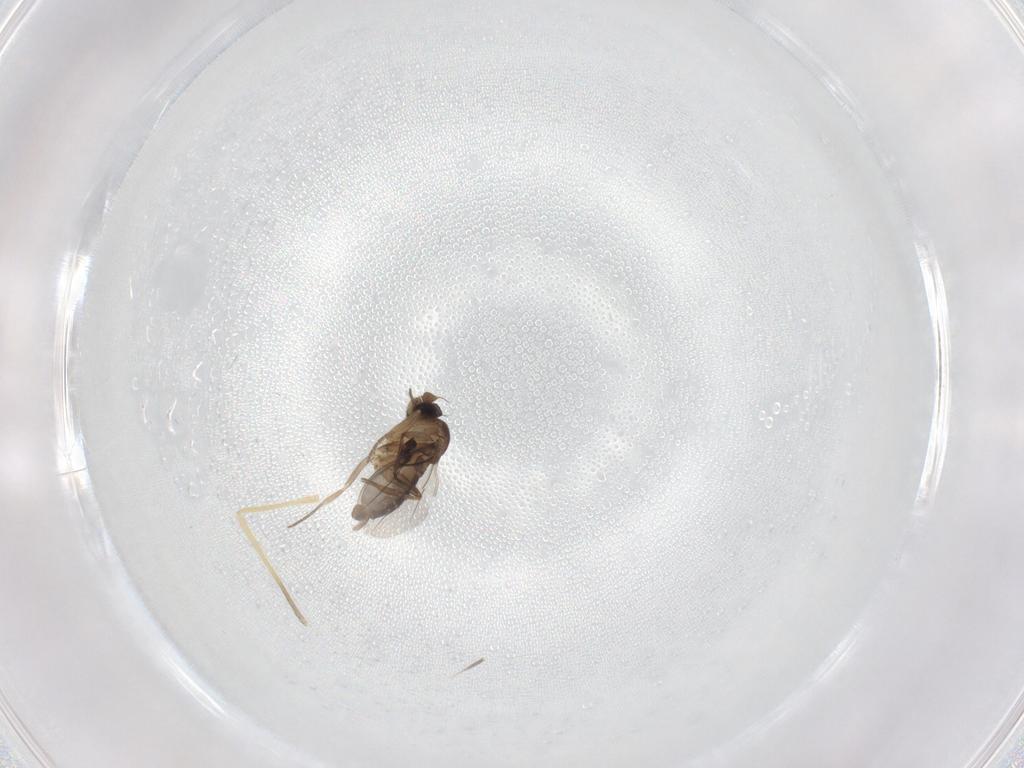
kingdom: Animalia
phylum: Arthropoda
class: Insecta
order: Diptera
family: Phoridae
